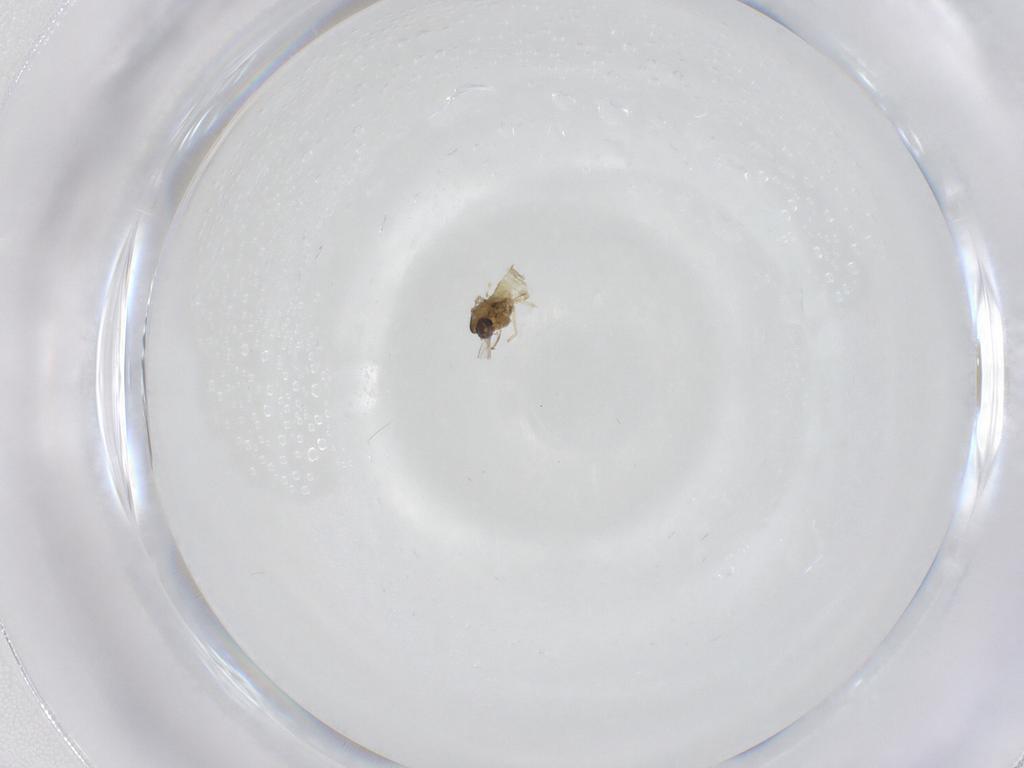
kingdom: Animalia
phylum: Arthropoda
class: Insecta
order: Diptera
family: Chironomidae
